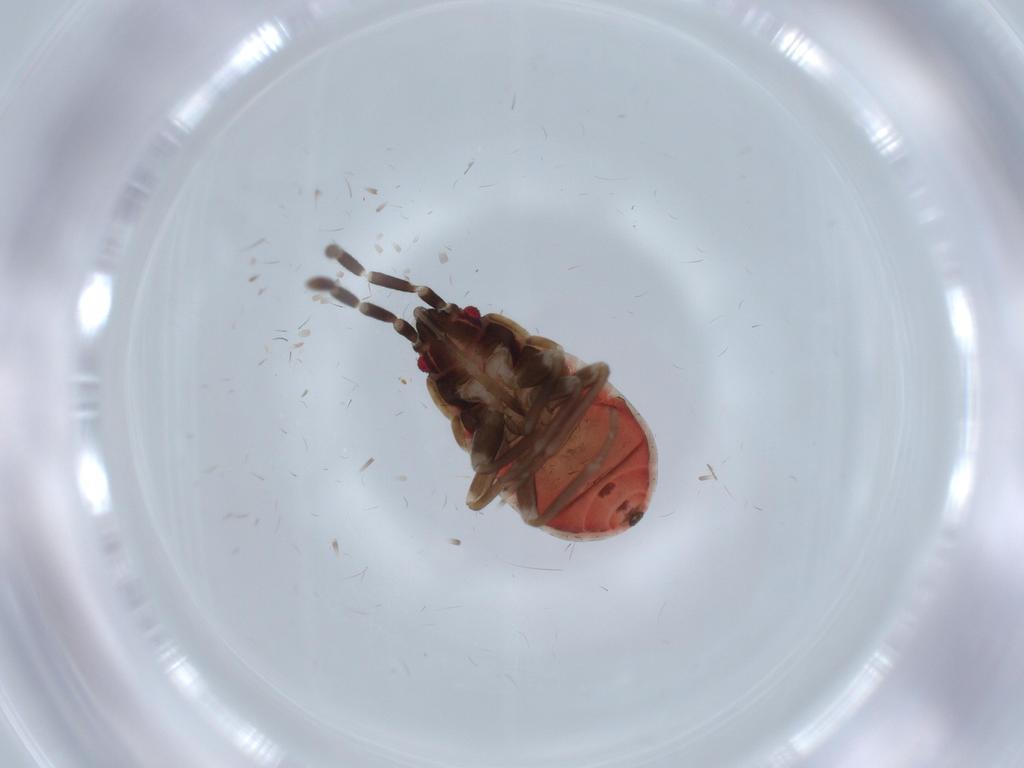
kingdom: Animalia
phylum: Arthropoda
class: Insecta
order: Hemiptera
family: Rhyparochromidae
